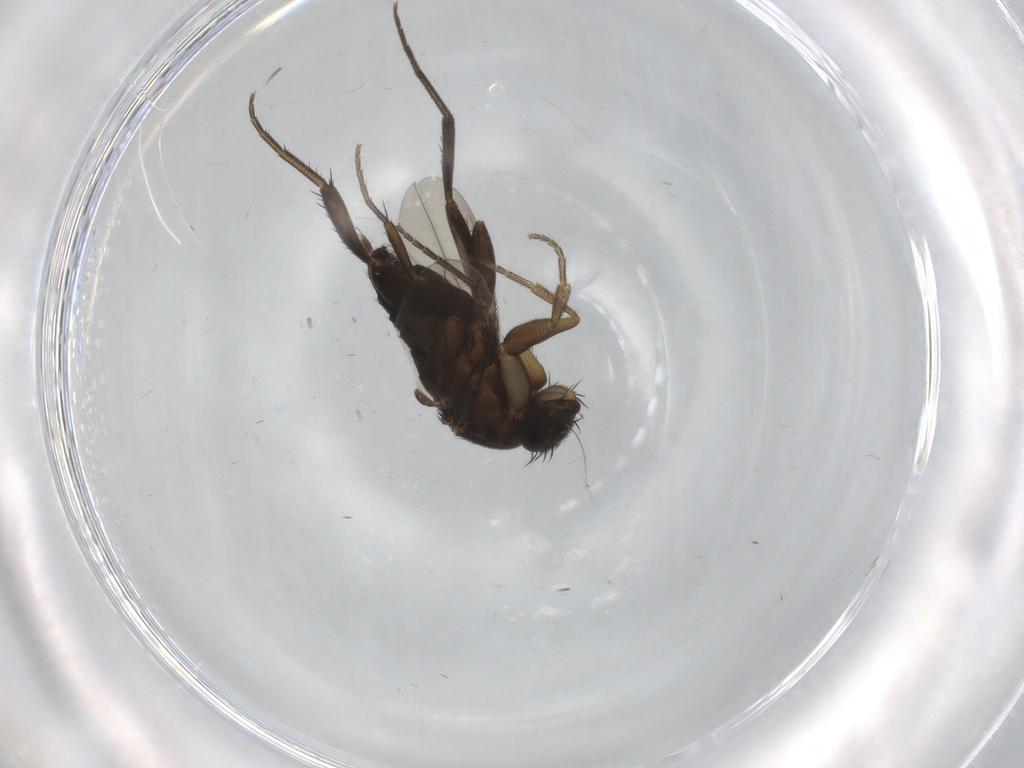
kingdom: Animalia
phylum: Arthropoda
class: Insecta
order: Diptera
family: Phoridae
